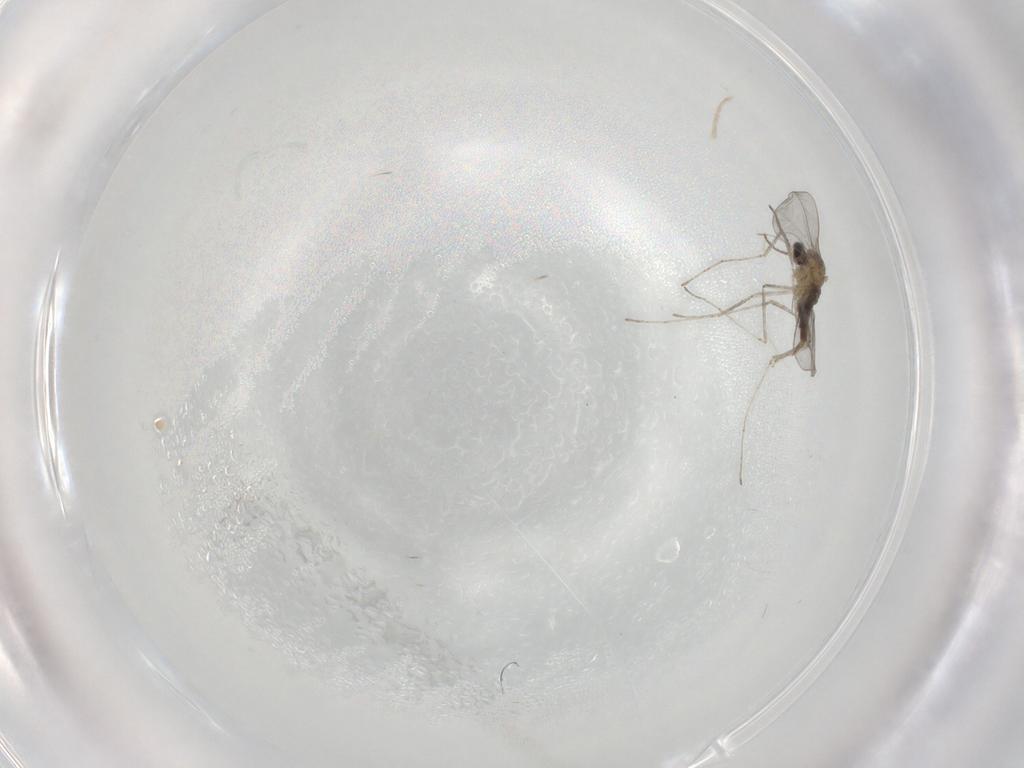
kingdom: Animalia
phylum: Arthropoda
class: Insecta
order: Diptera
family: Cecidomyiidae
